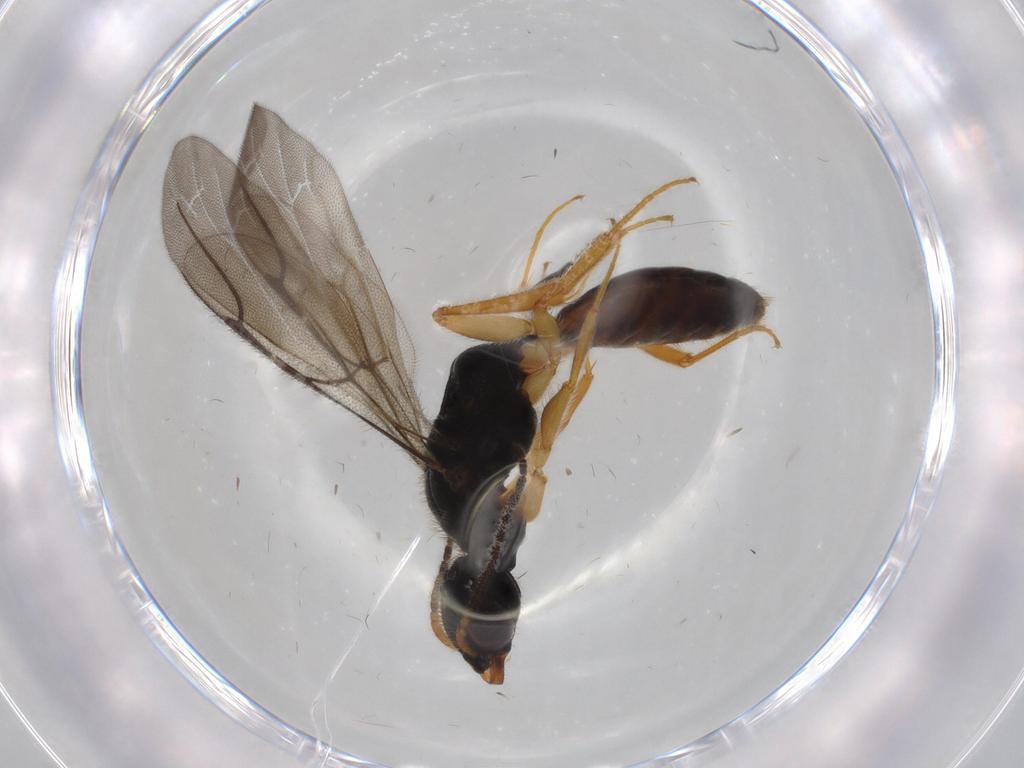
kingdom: Animalia
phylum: Arthropoda
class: Insecta
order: Hymenoptera
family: Bethylidae
